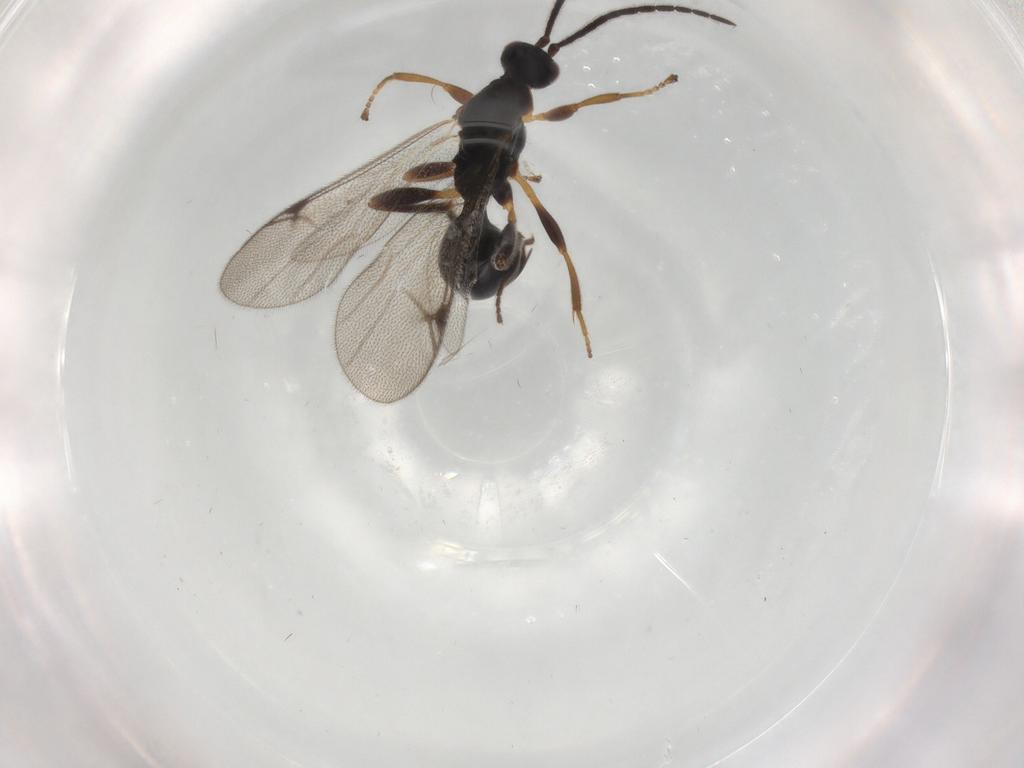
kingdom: Animalia
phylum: Arthropoda
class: Insecta
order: Hymenoptera
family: Proctotrupidae
